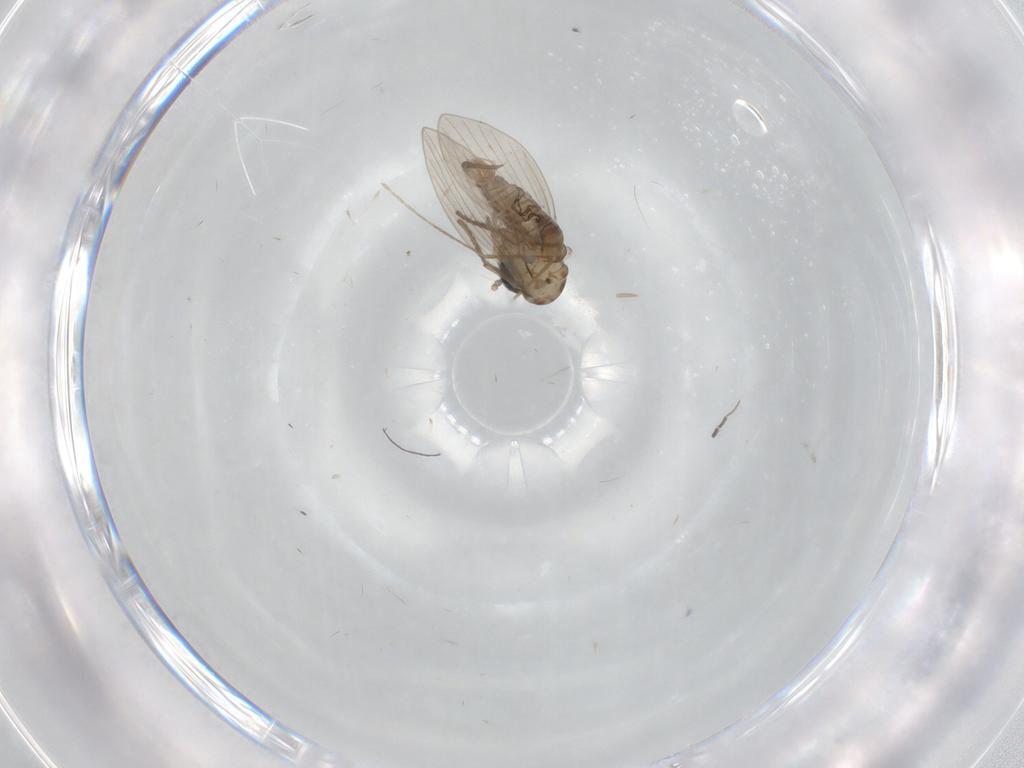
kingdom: Animalia
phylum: Arthropoda
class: Insecta
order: Diptera
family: Drosophilidae
